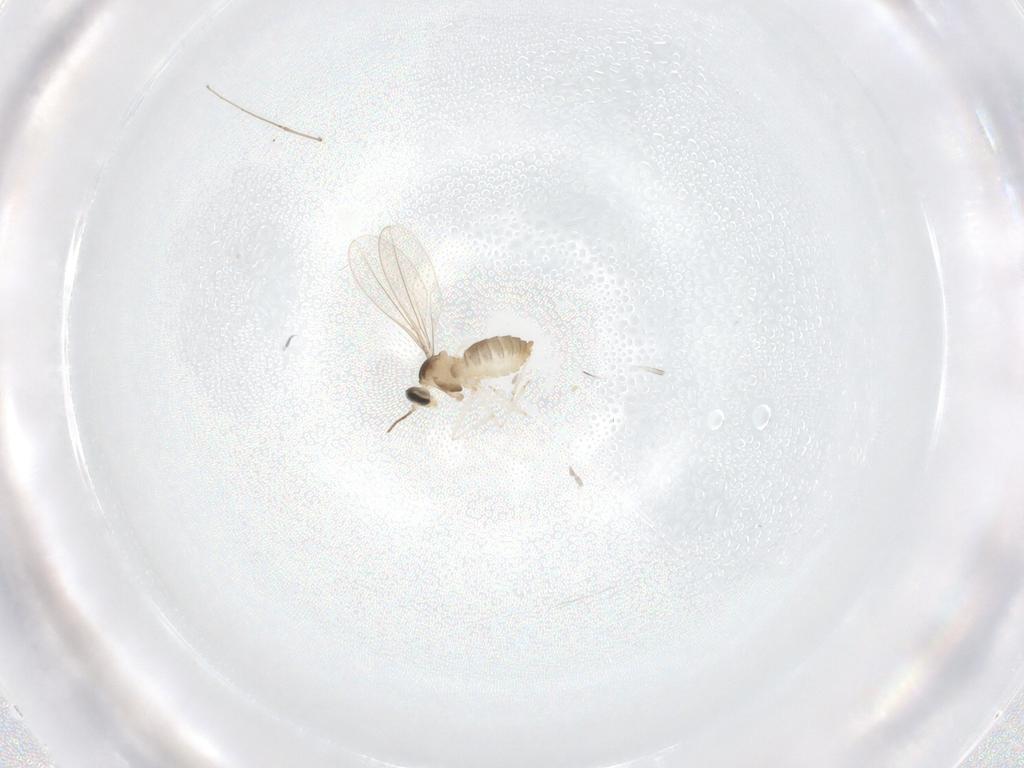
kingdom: Animalia
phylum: Arthropoda
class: Insecta
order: Diptera
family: Cecidomyiidae
